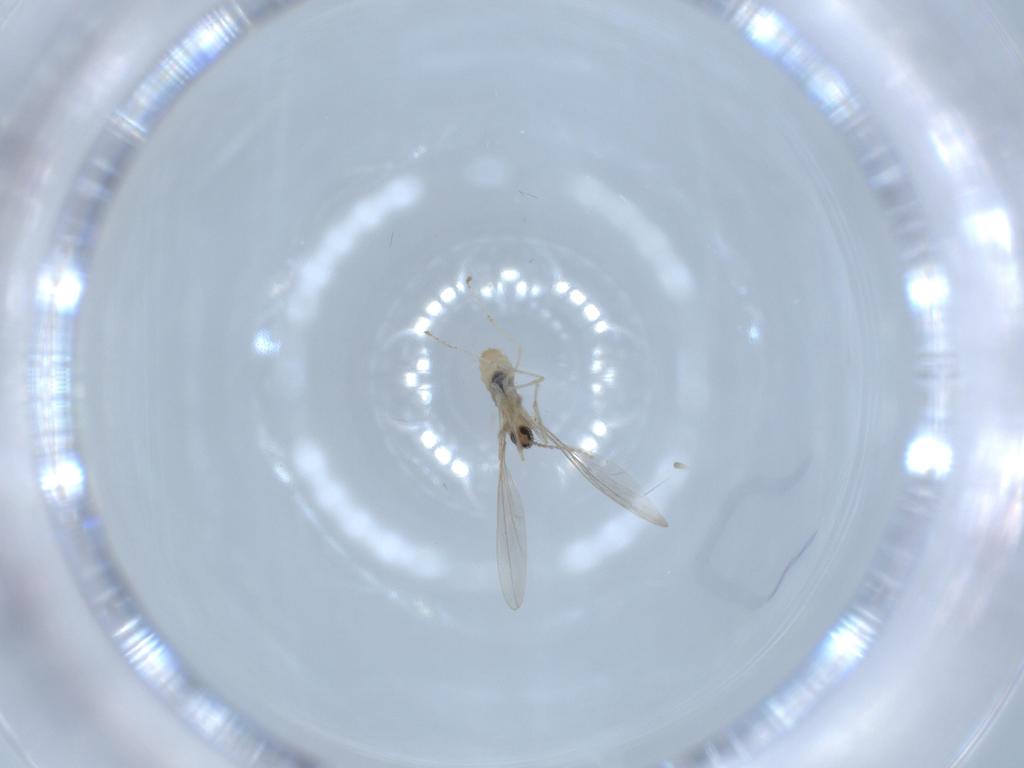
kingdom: Animalia
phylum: Arthropoda
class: Insecta
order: Diptera
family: Cecidomyiidae
